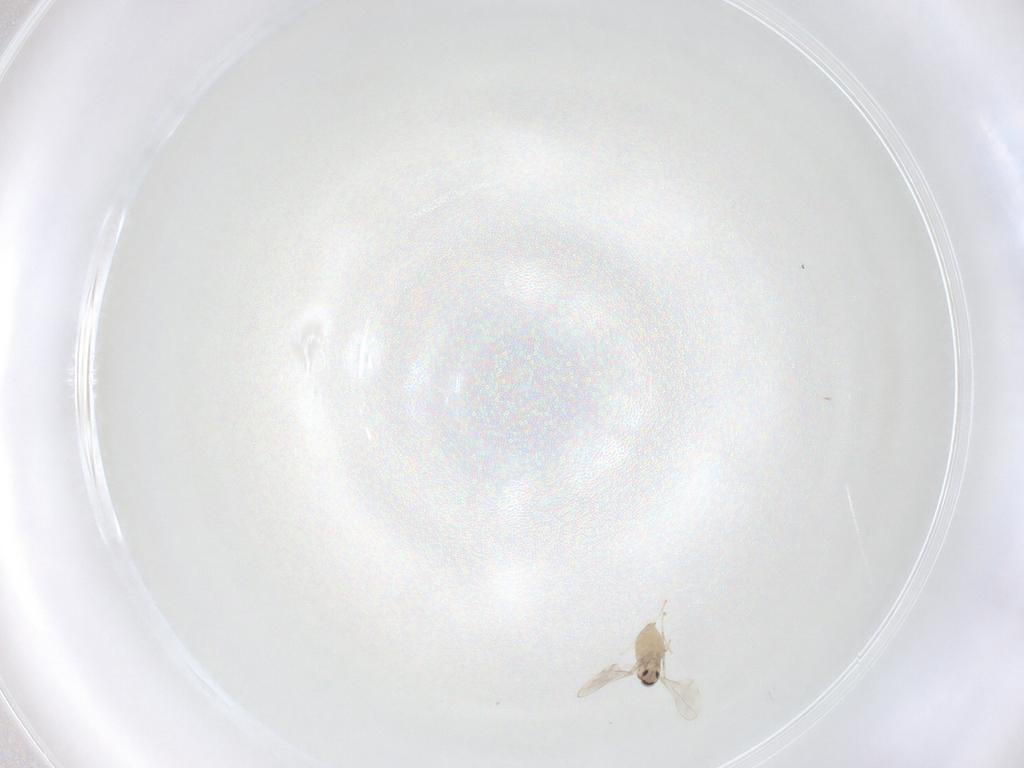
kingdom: Animalia
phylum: Arthropoda
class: Insecta
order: Diptera
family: Cecidomyiidae
